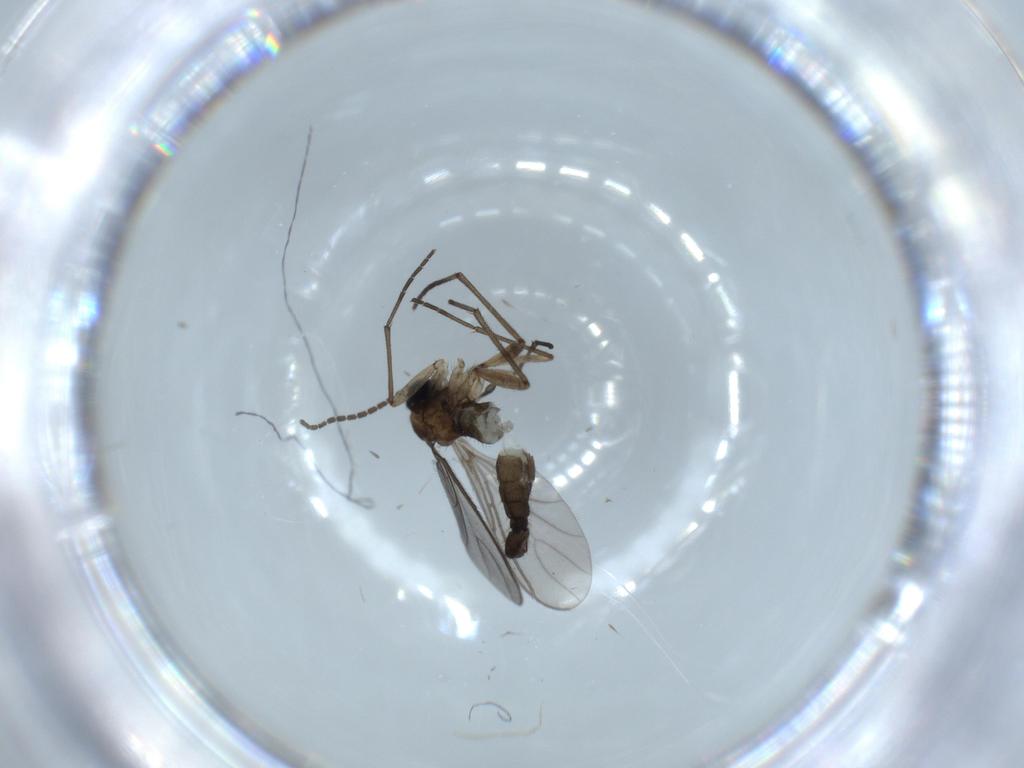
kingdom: Animalia
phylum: Arthropoda
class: Insecta
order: Diptera
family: Sciaridae
